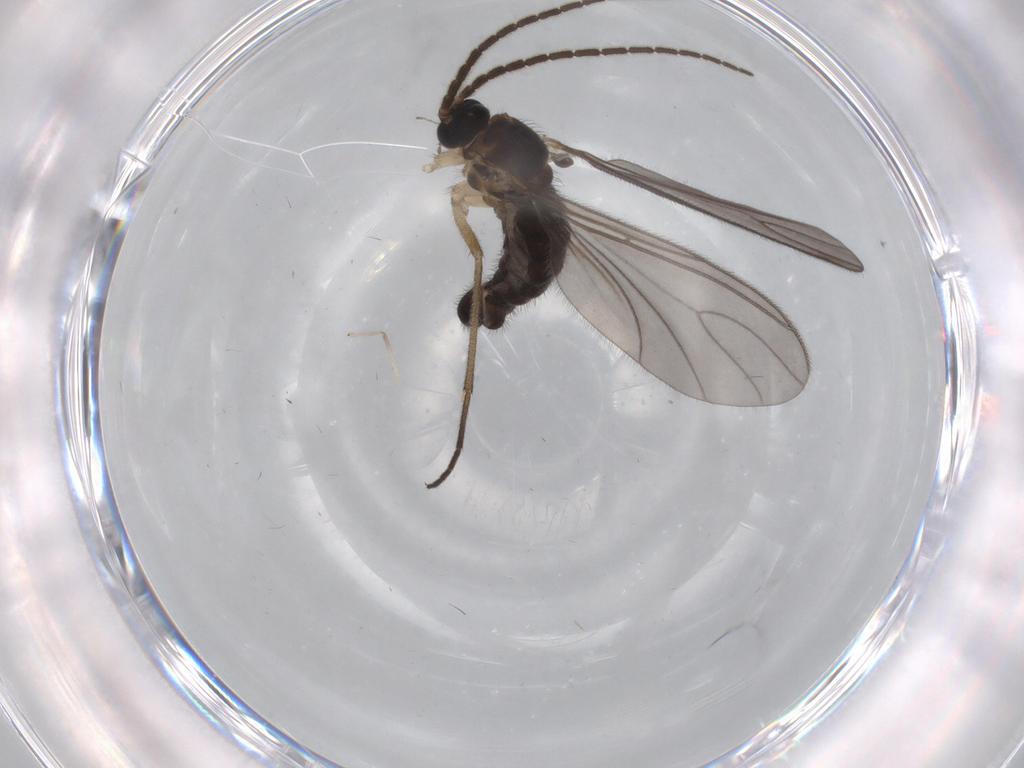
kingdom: Animalia
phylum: Arthropoda
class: Insecta
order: Diptera
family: Sciaridae
